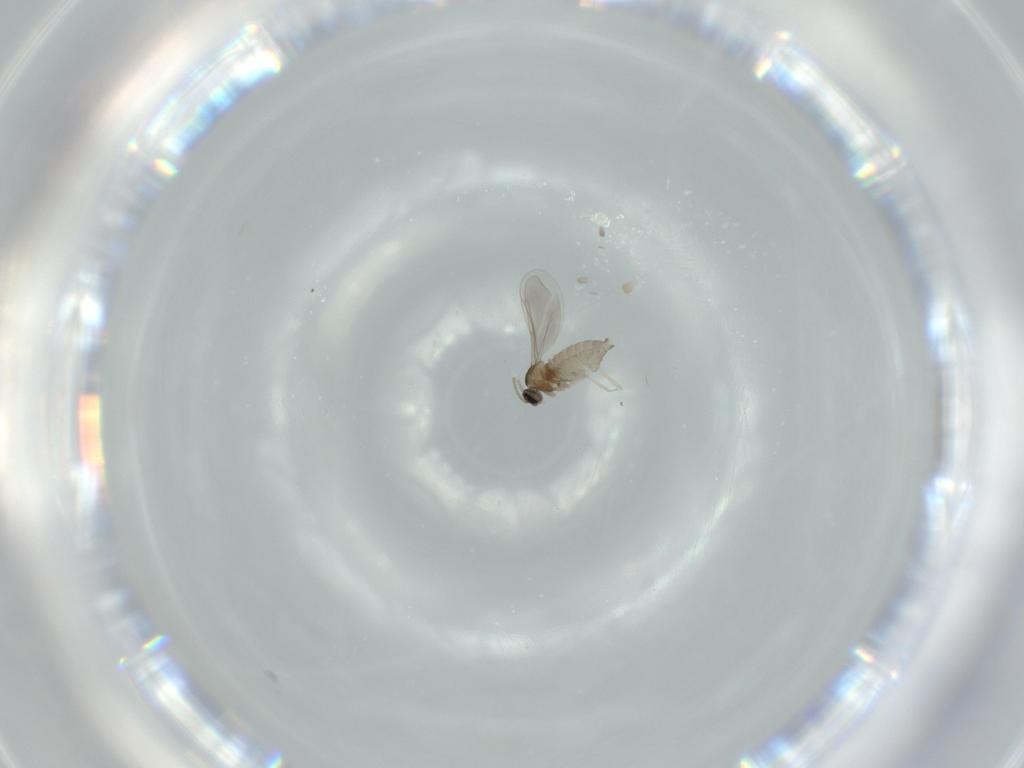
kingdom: Animalia
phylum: Arthropoda
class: Insecta
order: Diptera
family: Cecidomyiidae
